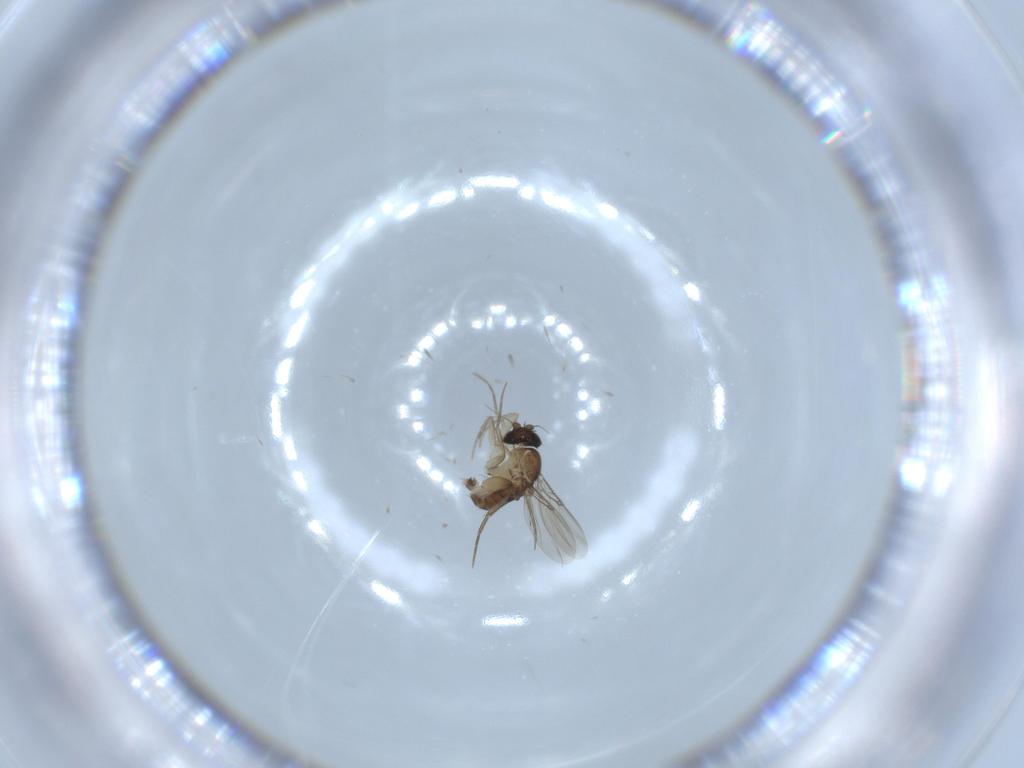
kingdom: Animalia
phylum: Arthropoda
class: Insecta
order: Diptera
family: Phoridae
